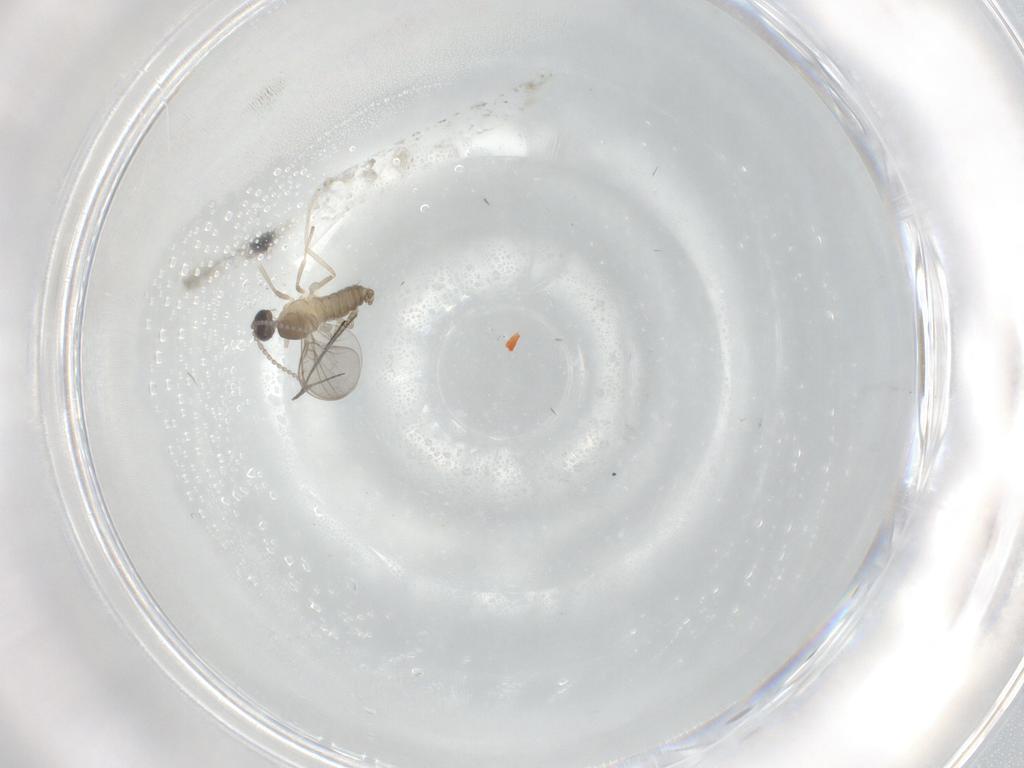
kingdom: Animalia
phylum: Arthropoda
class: Insecta
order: Diptera
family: Cecidomyiidae
